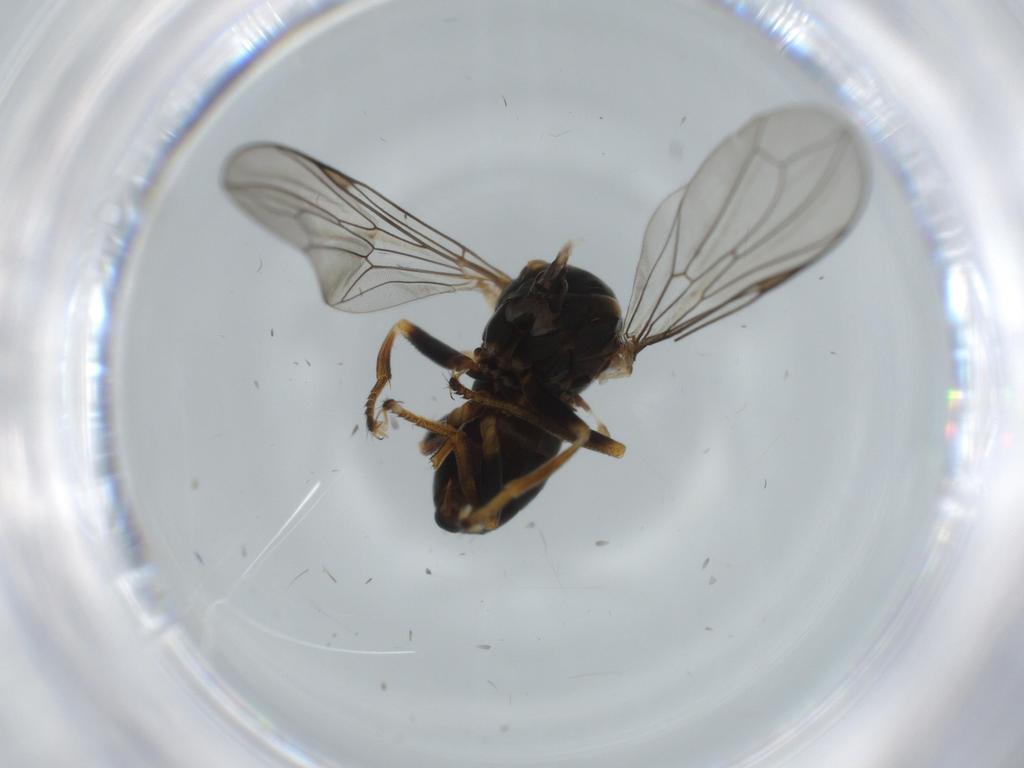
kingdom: Animalia
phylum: Arthropoda
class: Insecta
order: Diptera
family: Pipunculidae
